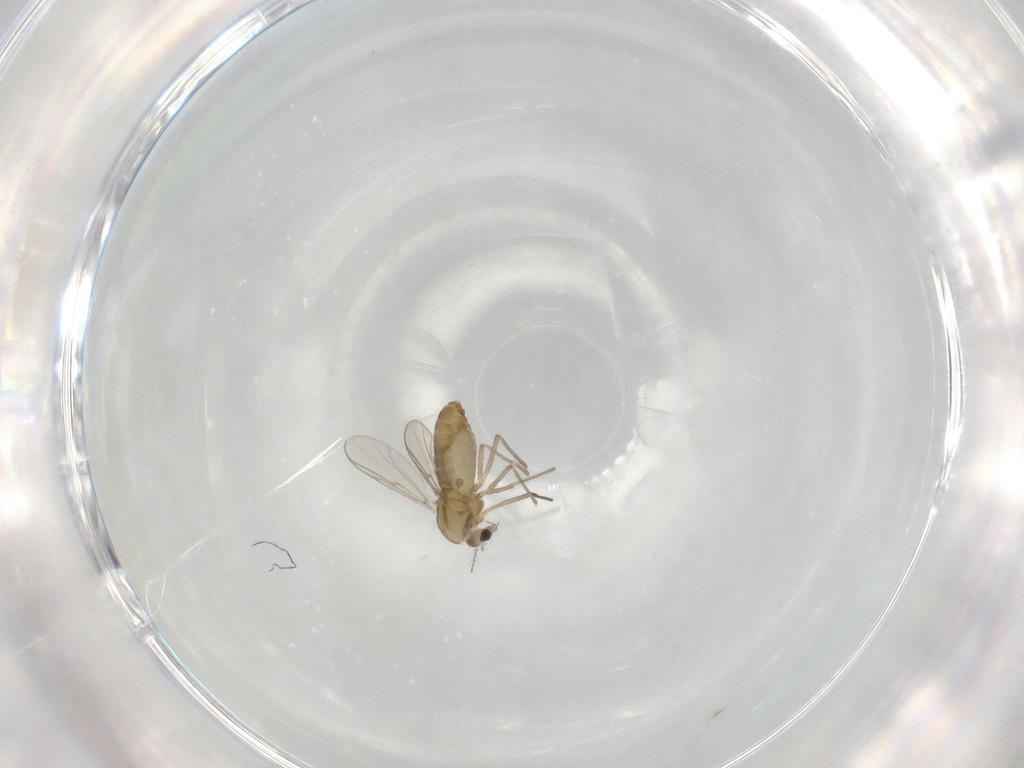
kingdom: Animalia
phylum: Arthropoda
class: Insecta
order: Diptera
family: Chironomidae
